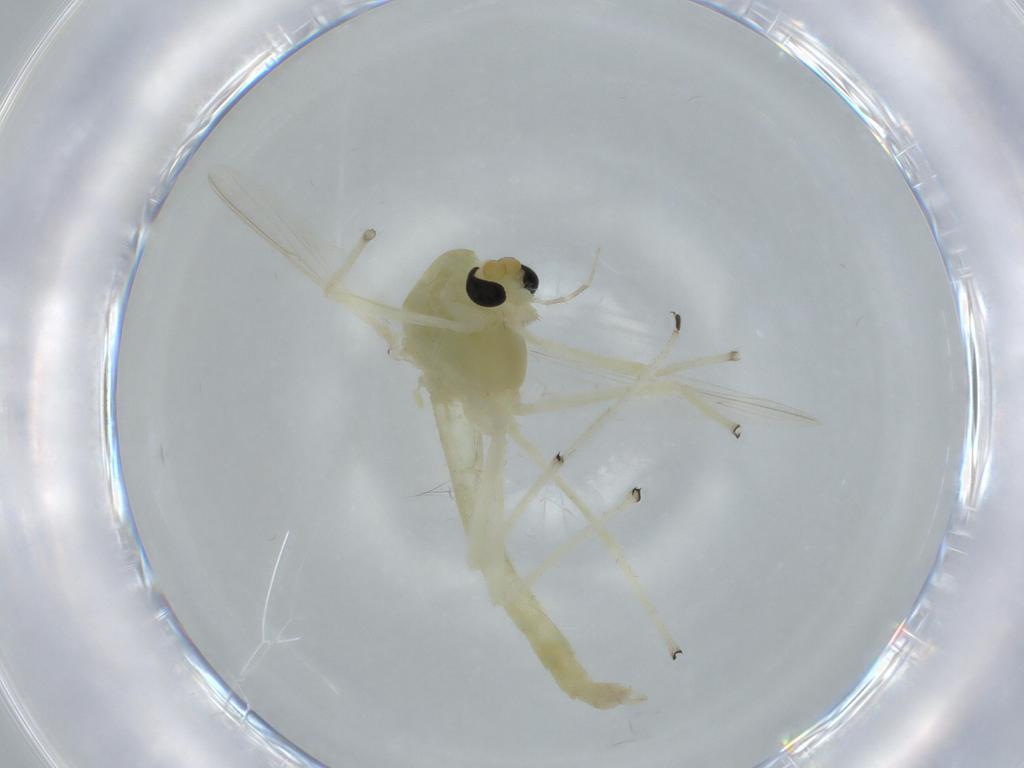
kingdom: Animalia
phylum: Arthropoda
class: Insecta
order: Diptera
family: Chironomidae
